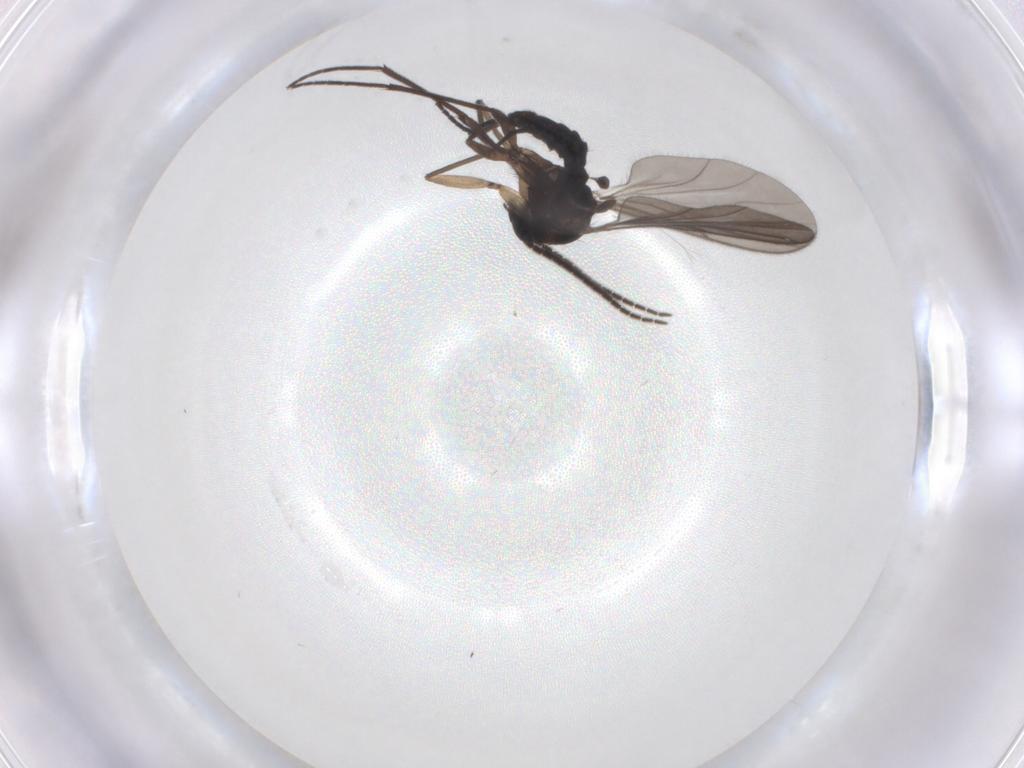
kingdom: Animalia
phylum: Arthropoda
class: Insecta
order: Diptera
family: Sciaridae
